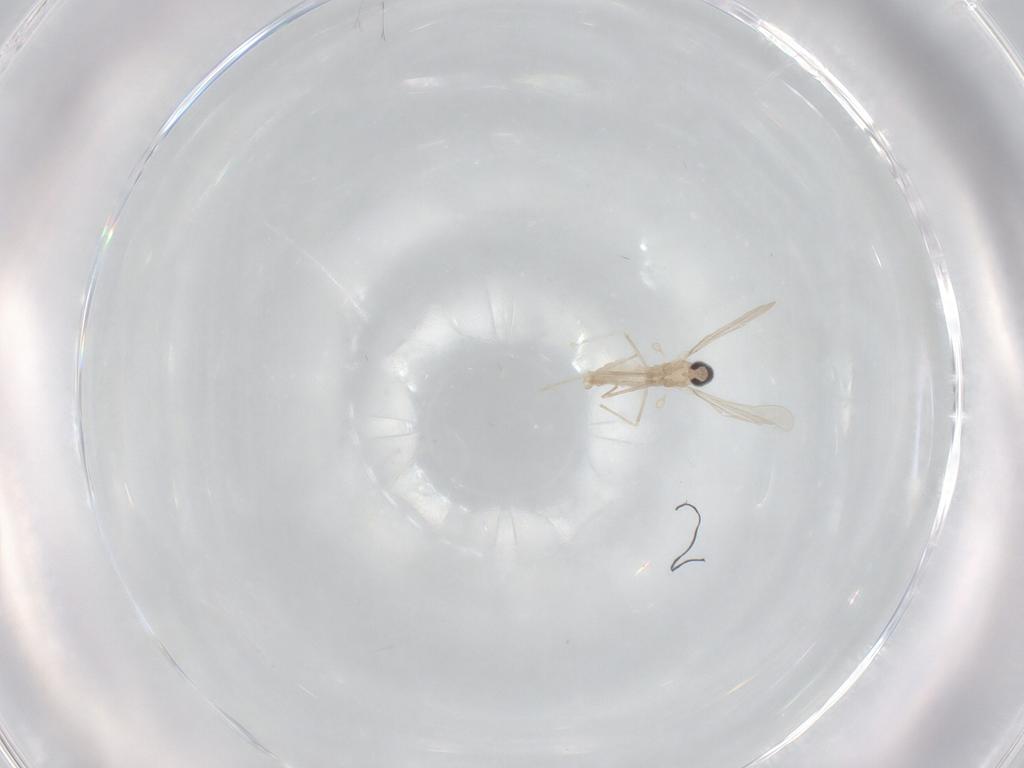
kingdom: Animalia
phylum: Arthropoda
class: Insecta
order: Diptera
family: Cecidomyiidae
